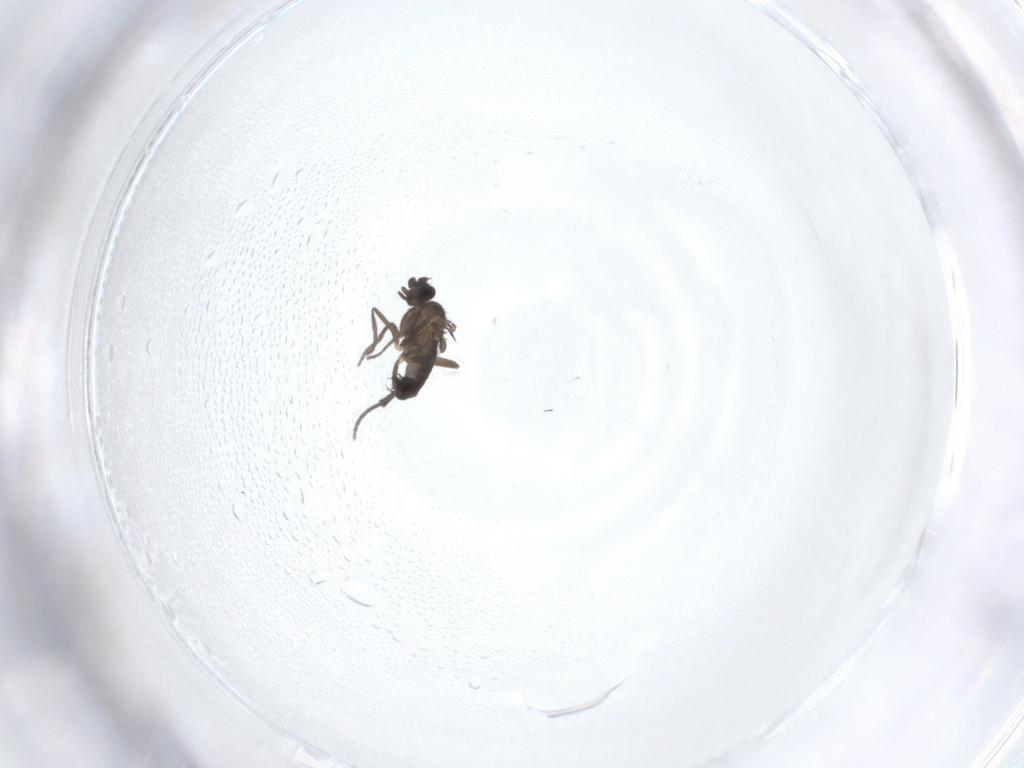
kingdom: Animalia
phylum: Arthropoda
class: Insecta
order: Diptera
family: Phoridae
